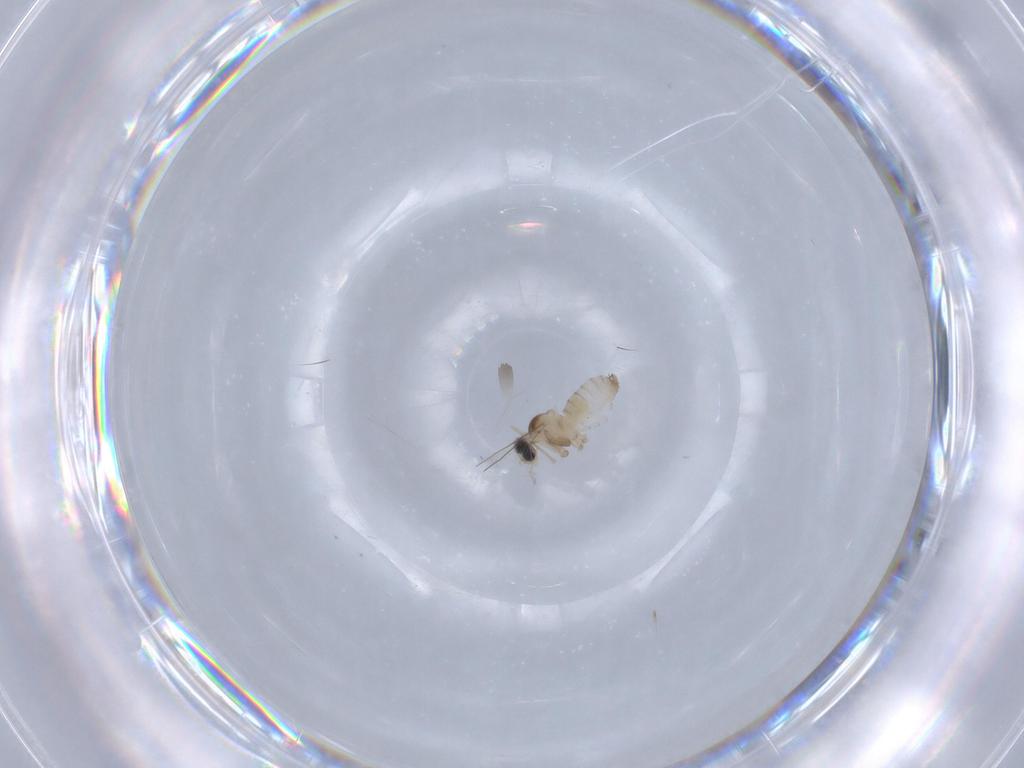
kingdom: Animalia
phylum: Arthropoda
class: Insecta
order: Diptera
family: Cecidomyiidae
